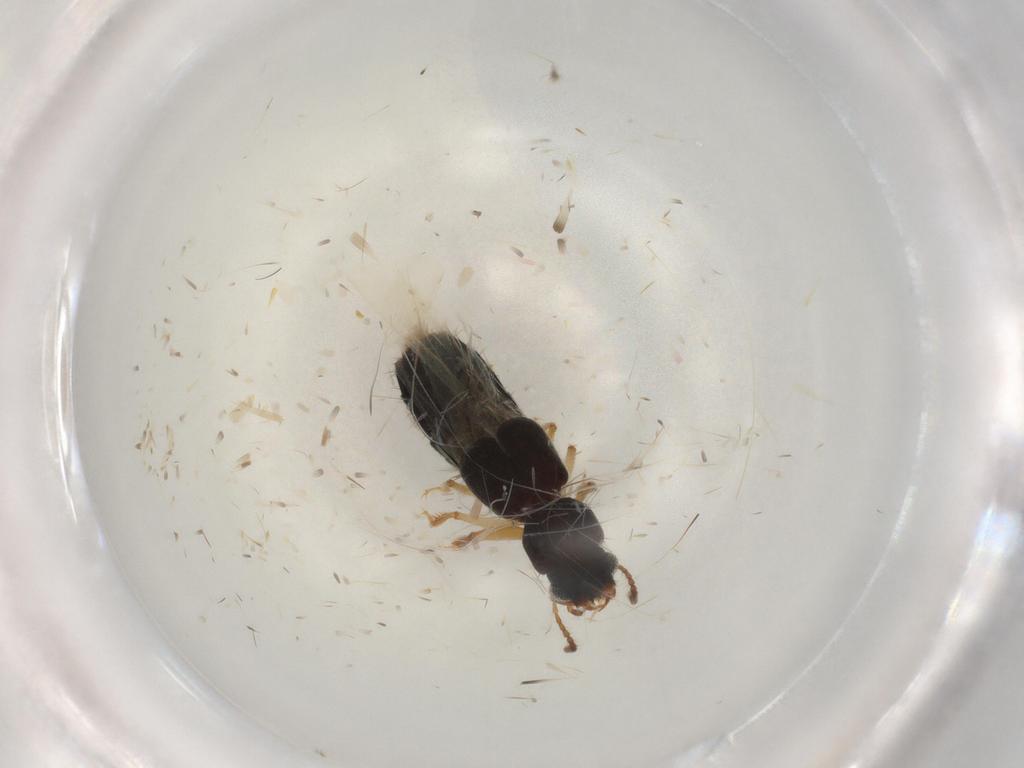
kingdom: Animalia
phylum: Arthropoda
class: Insecta
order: Coleoptera
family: Staphylinidae
